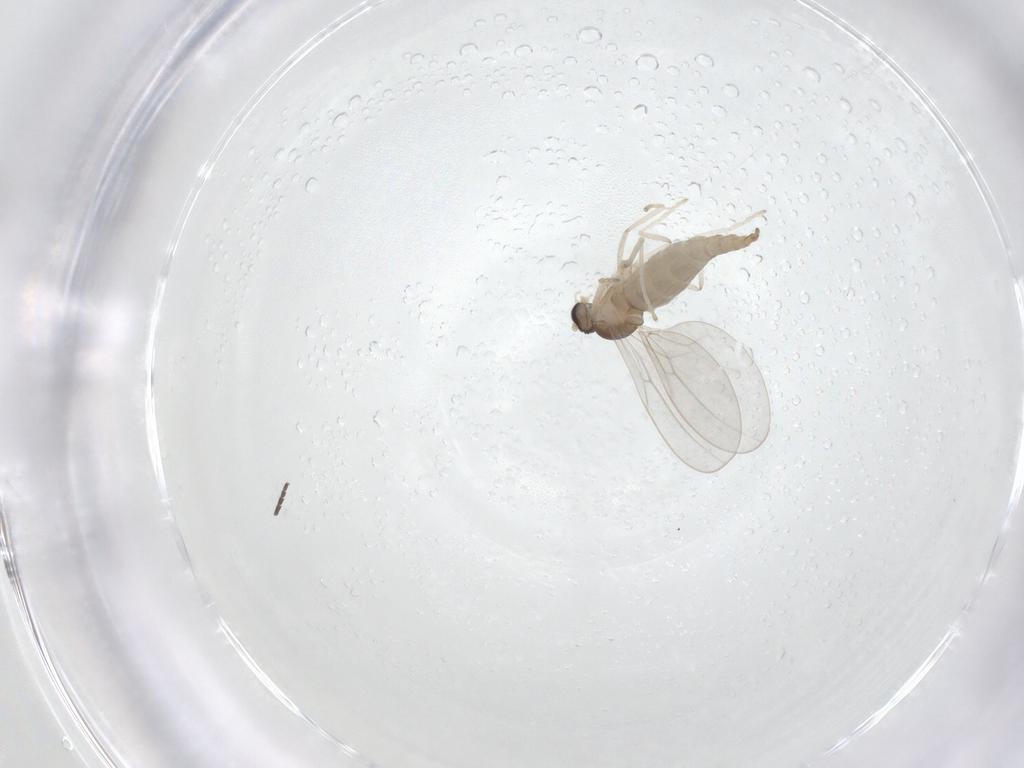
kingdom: Animalia
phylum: Arthropoda
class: Insecta
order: Diptera
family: Cecidomyiidae
